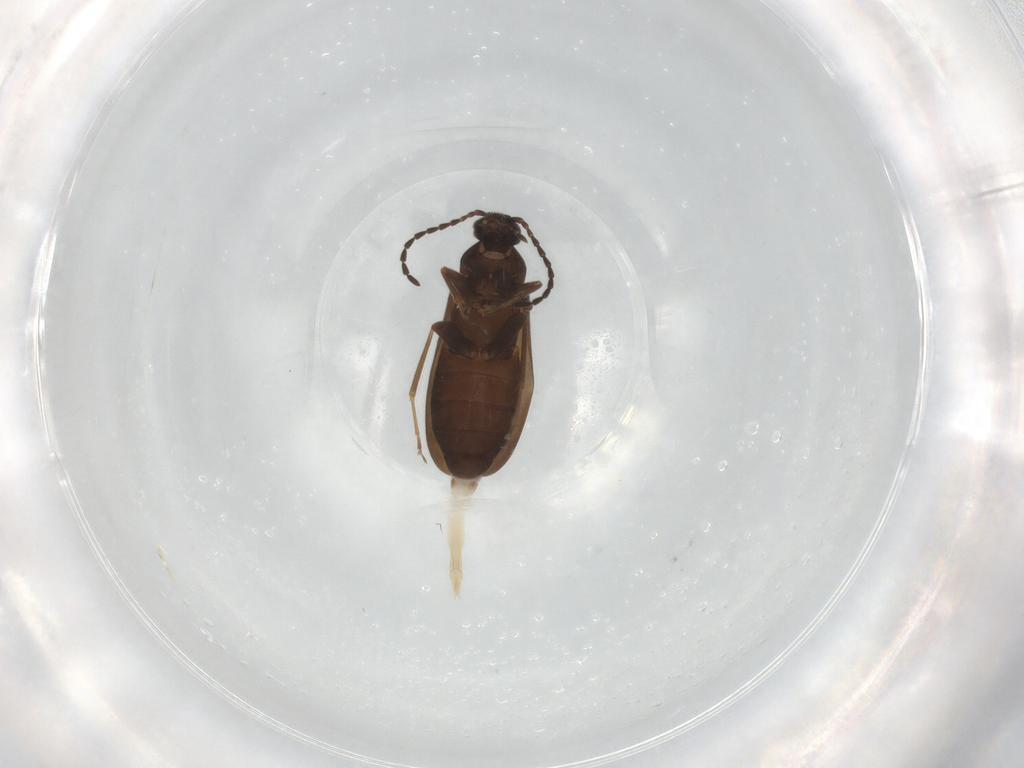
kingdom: Animalia
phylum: Arthropoda
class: Insecta
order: Coleoptera
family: Scraptiidae
